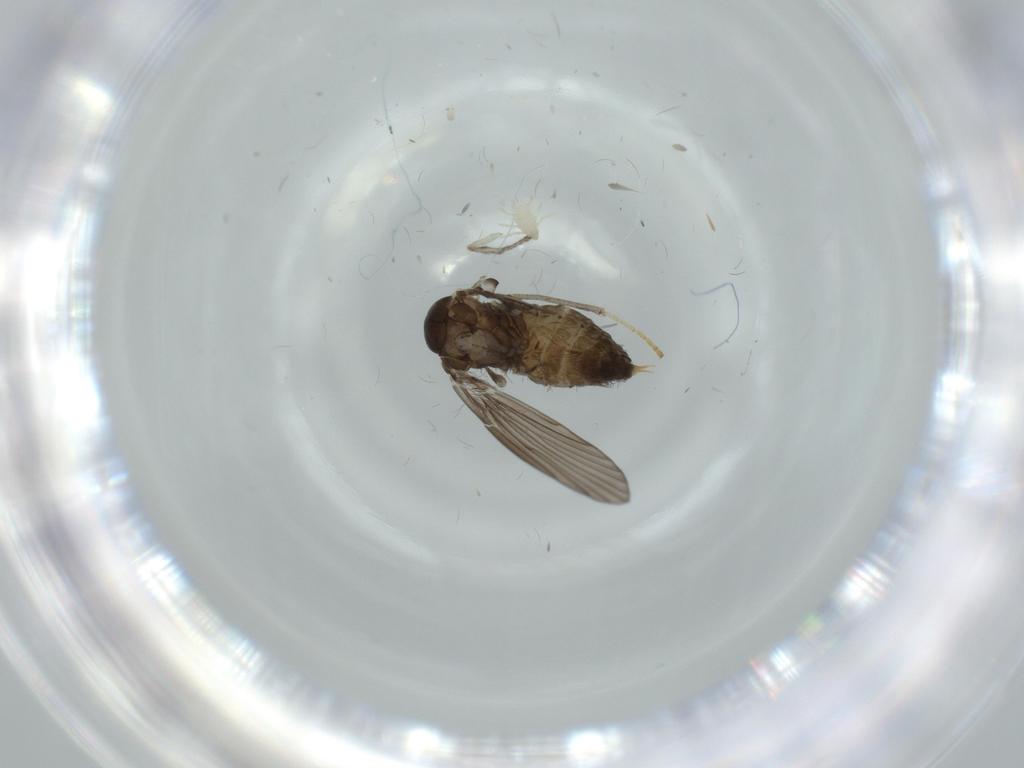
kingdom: Animalia
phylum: Arthropoda
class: Insecta
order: Diptera
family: Psychodidae
